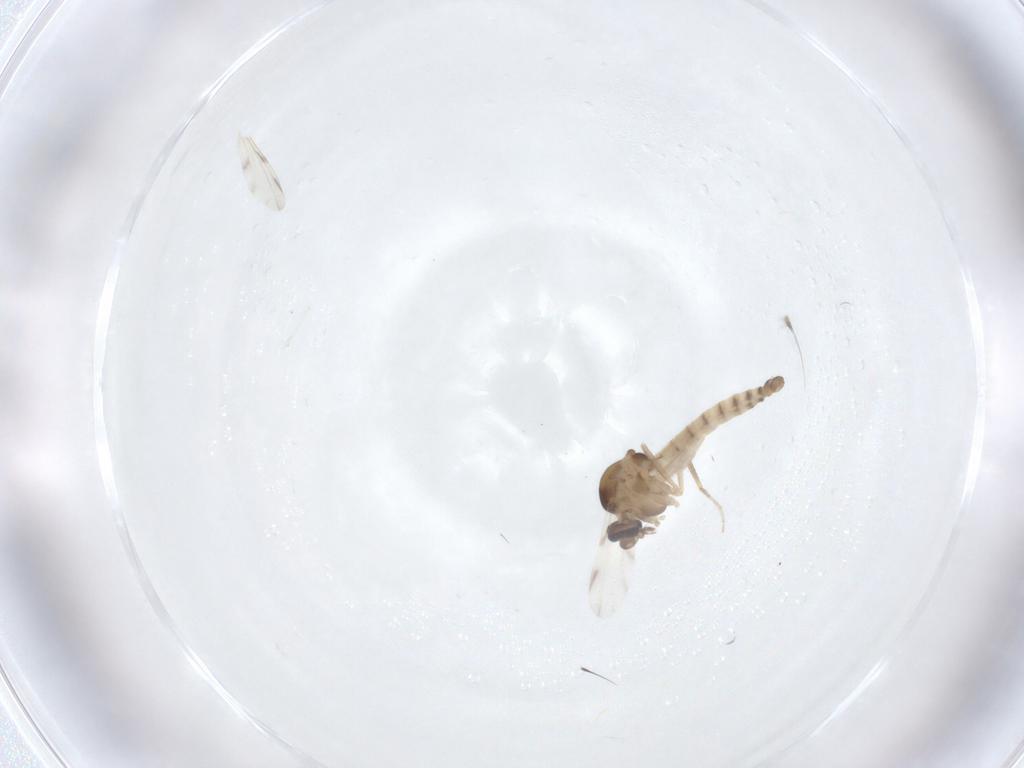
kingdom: Animalia
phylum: Arthropoda
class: Insecta
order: Diptera
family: Ceratopogonidae
